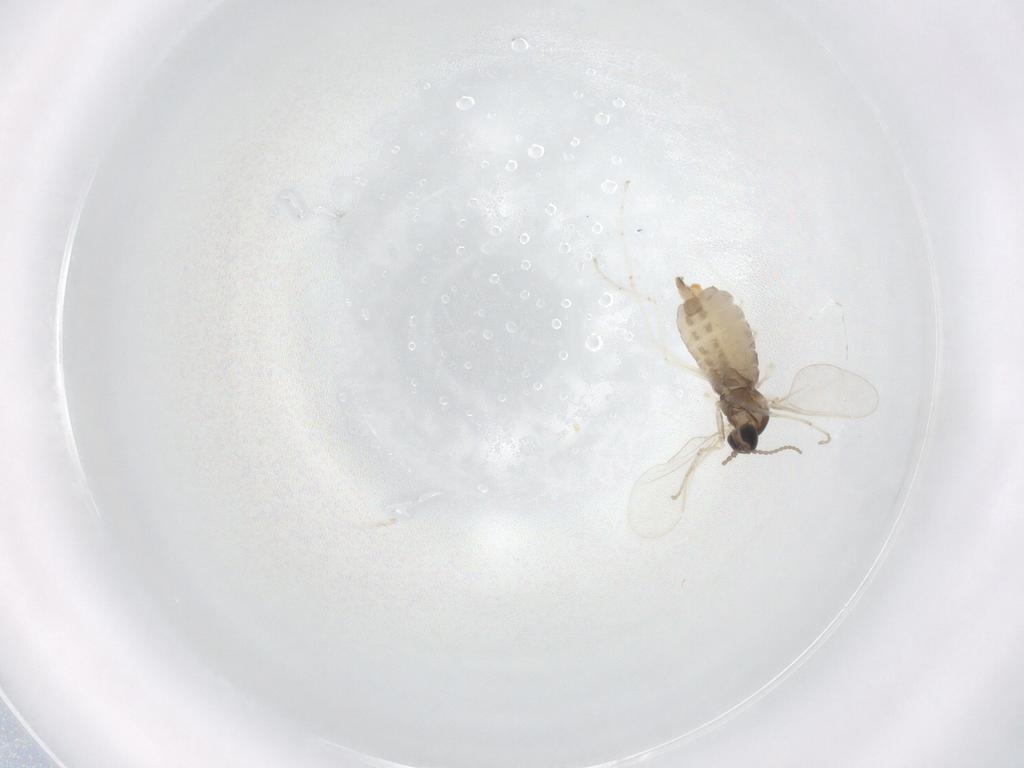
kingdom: Animalia
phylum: Arthropoda
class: Insecta
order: Diptera
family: Cecidomyiidae
